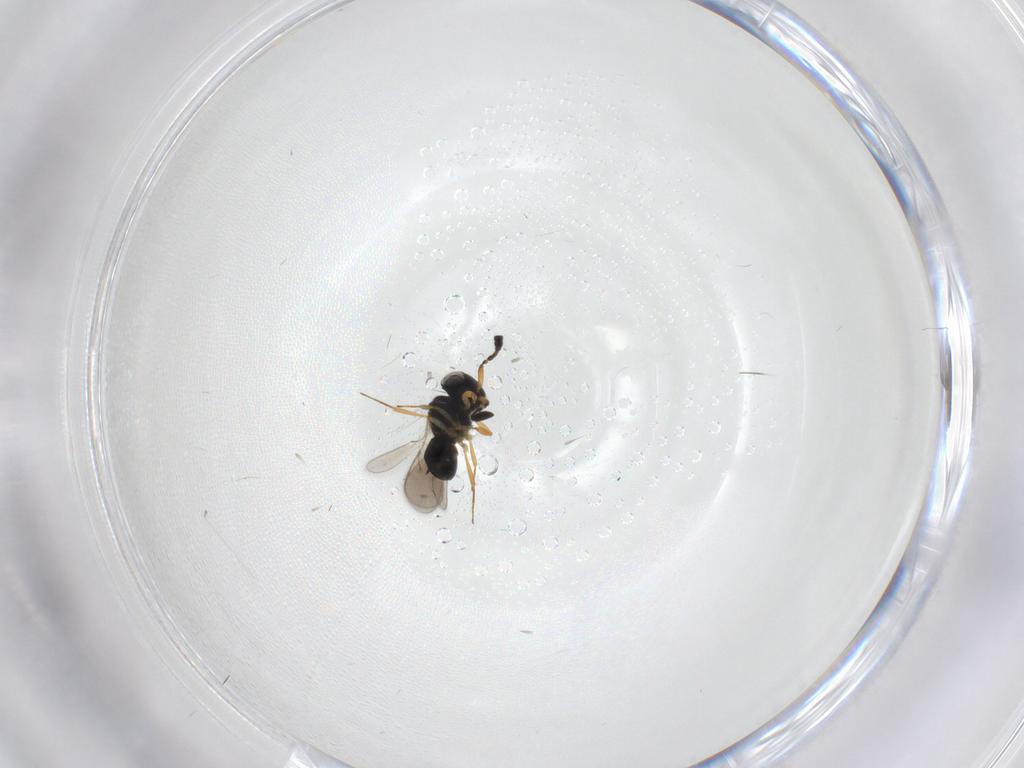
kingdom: Animalia
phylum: Arthropoda
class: Insecta
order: Hymenoptera
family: Scelionidae
